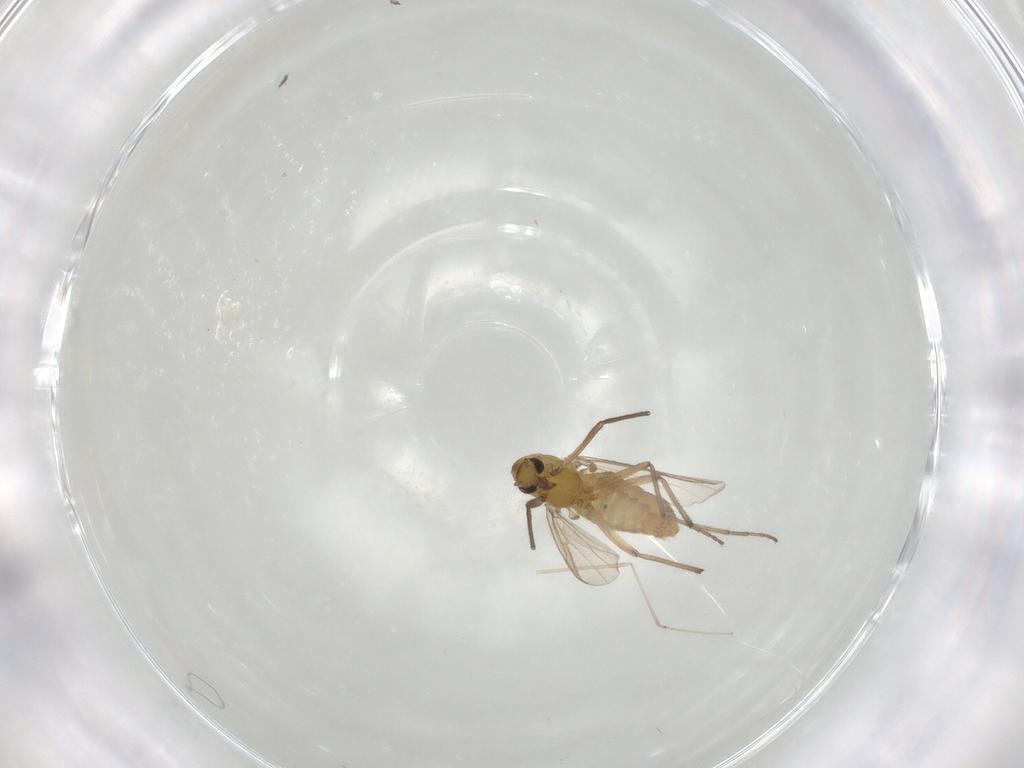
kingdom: Animalia
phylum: Arthropoda
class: Insecta
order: Diptera
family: Chironomidae
